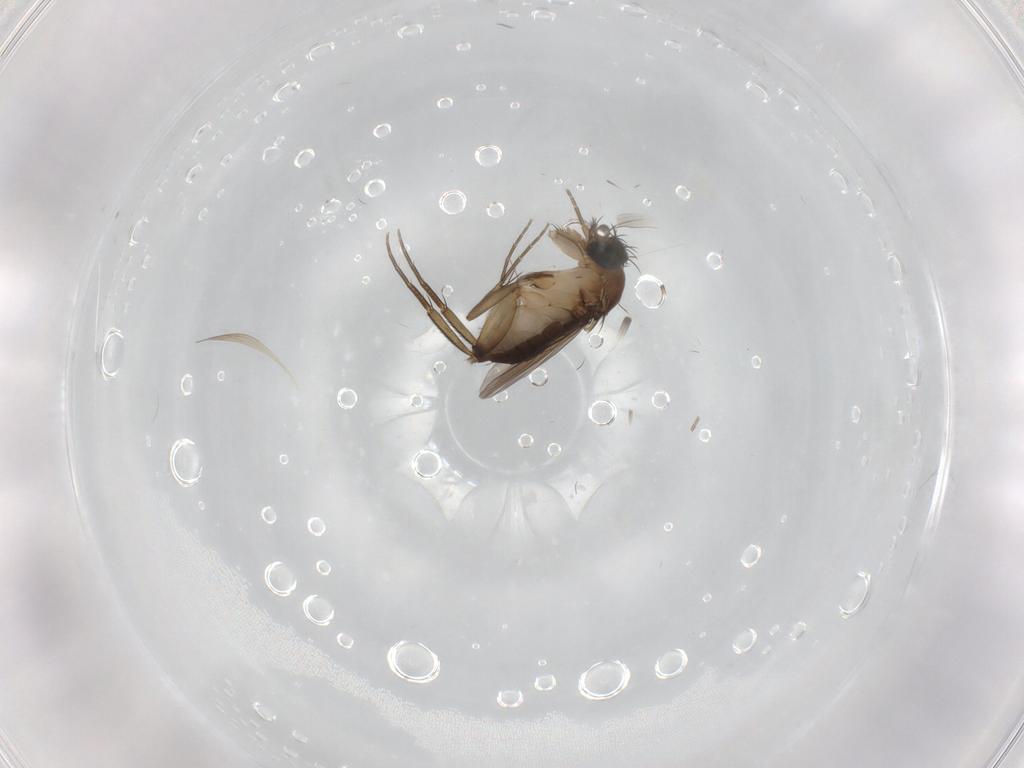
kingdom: Animalia
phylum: Arthropoda
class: Insecta
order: Diptera
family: Phoridae
